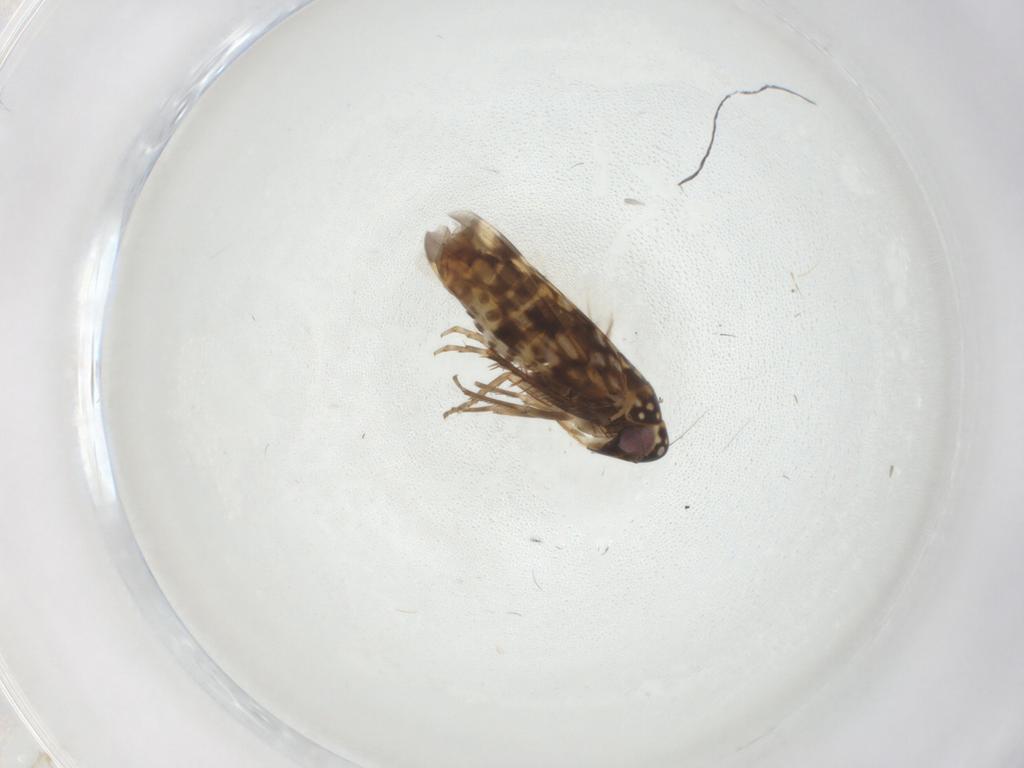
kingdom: Animalia
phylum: Arthropoda
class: Insecta
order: Hemiptera
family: Cicadellidae
